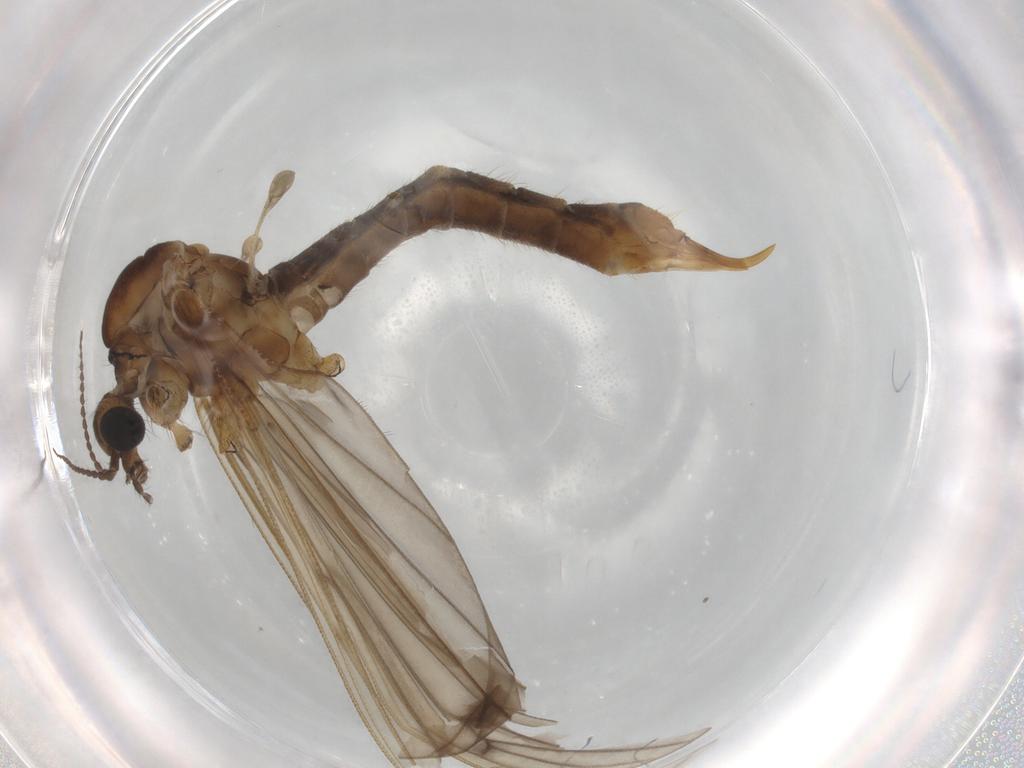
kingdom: Animalia
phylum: Arthropoda
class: Insecta
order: Diptera
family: Limoniidae
